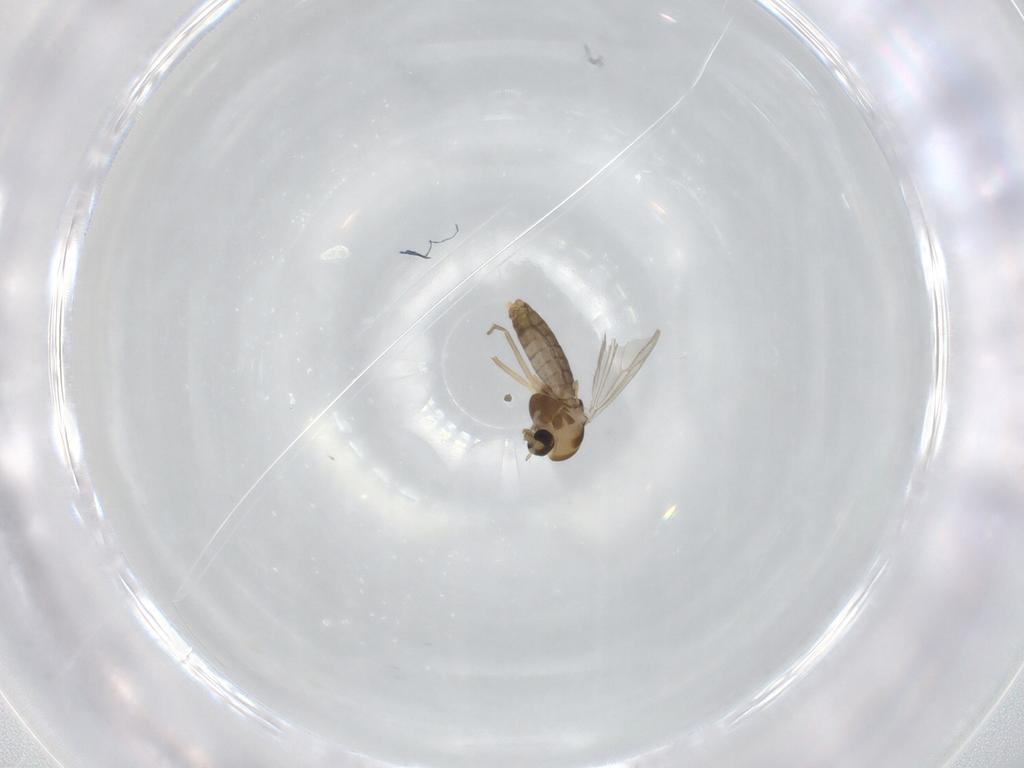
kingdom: Animalia
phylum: Arthropoda
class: Insecta
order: Diptera
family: Chironomidae
